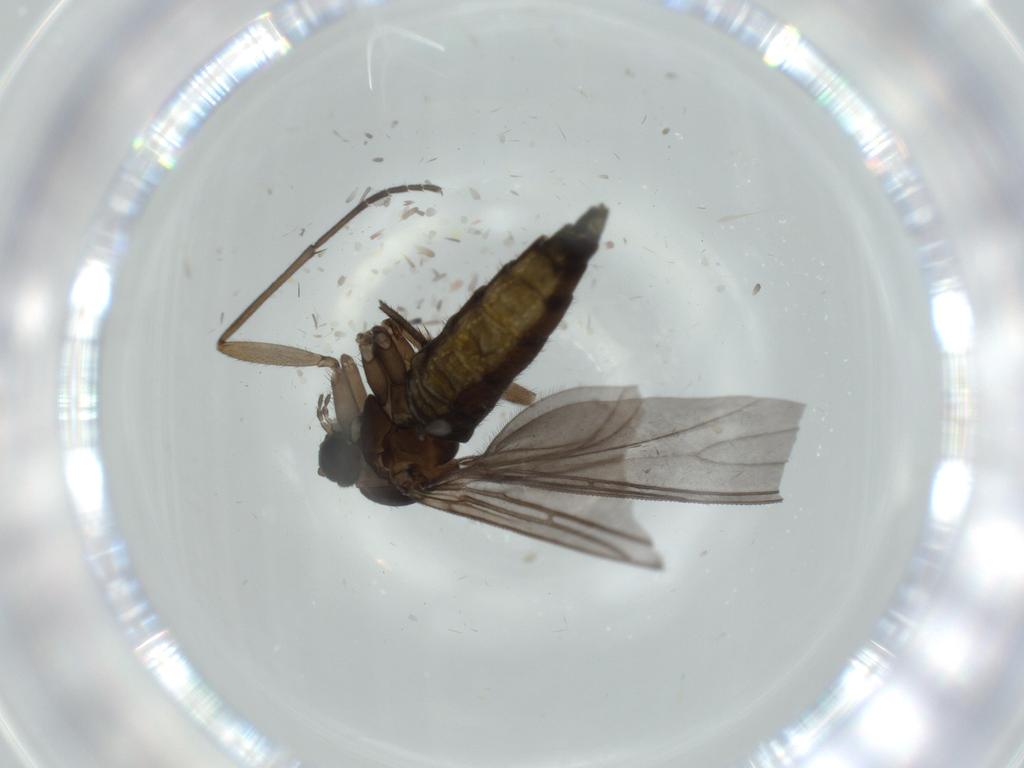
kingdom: Animalia
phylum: Arthropoda
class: Insecta
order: Diptera
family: Sciaridae
